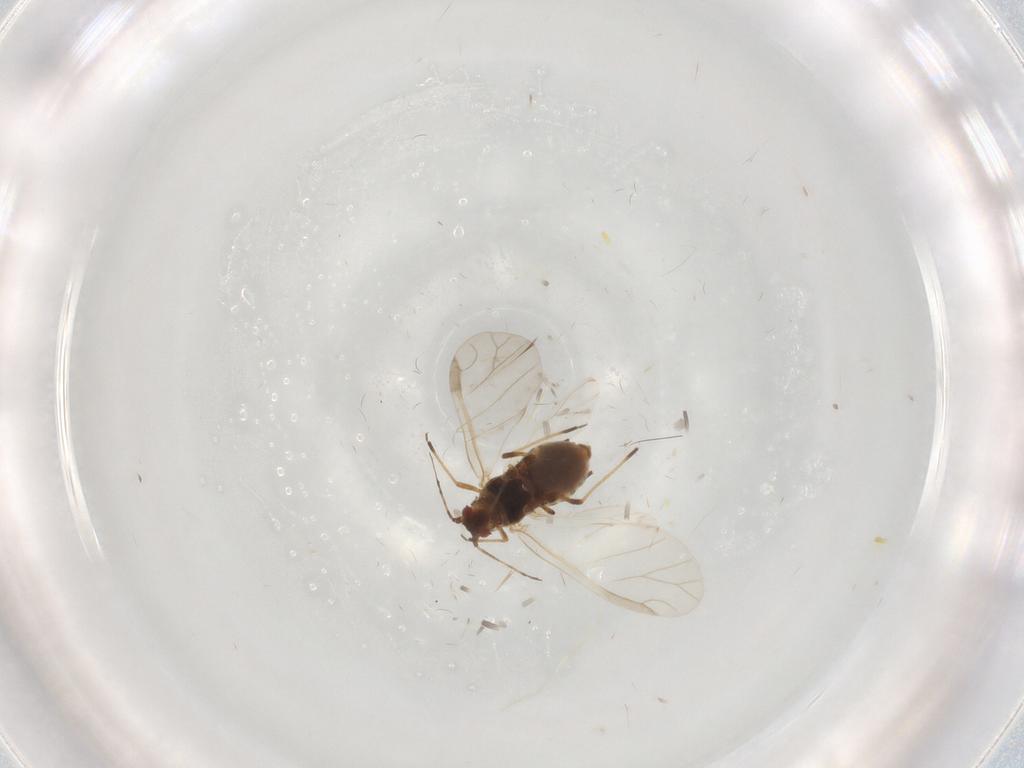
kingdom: Animalia
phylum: Arthropoda
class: Insecta
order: Hemiptera
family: Aphididae
